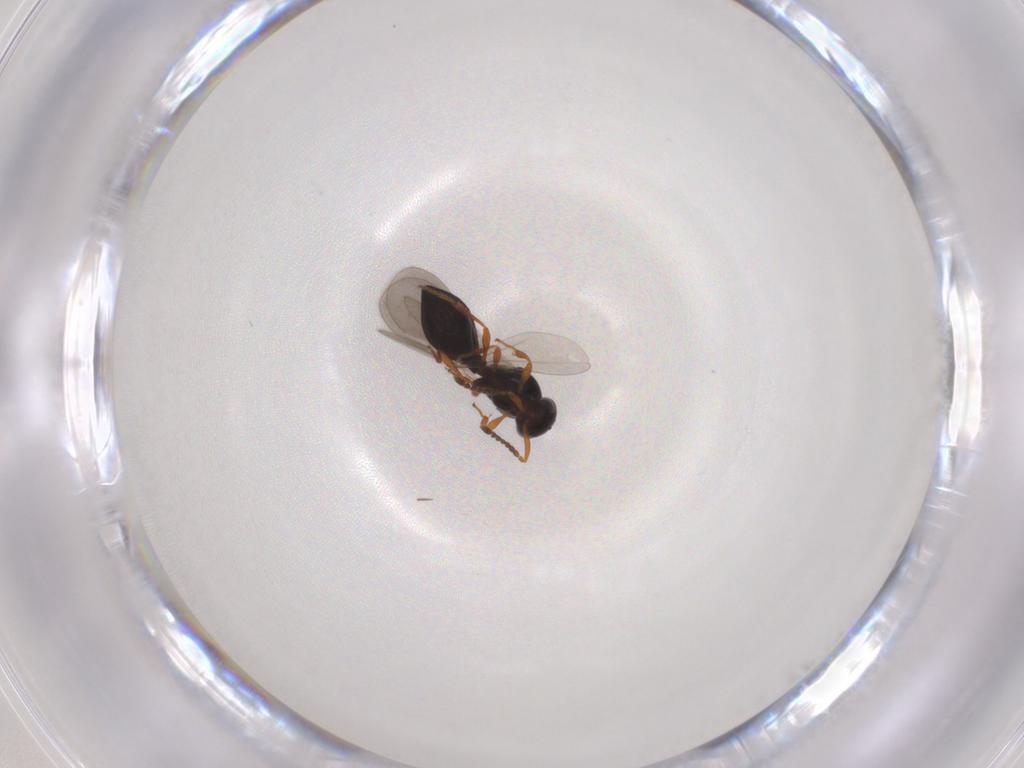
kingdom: Animalia
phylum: Arthropoda
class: Insecta
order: Hymenoptera
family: Platygastridae
